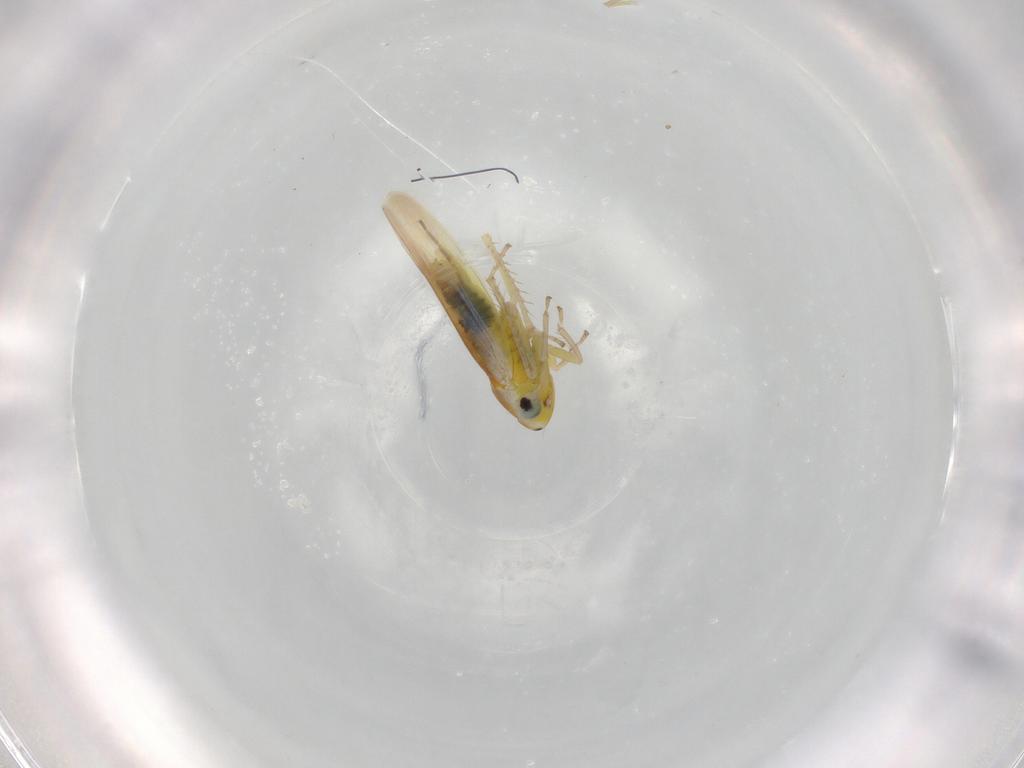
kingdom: Animalia
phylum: Arthropoda
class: Insecta
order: Hemiptera
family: Cicadellidae
